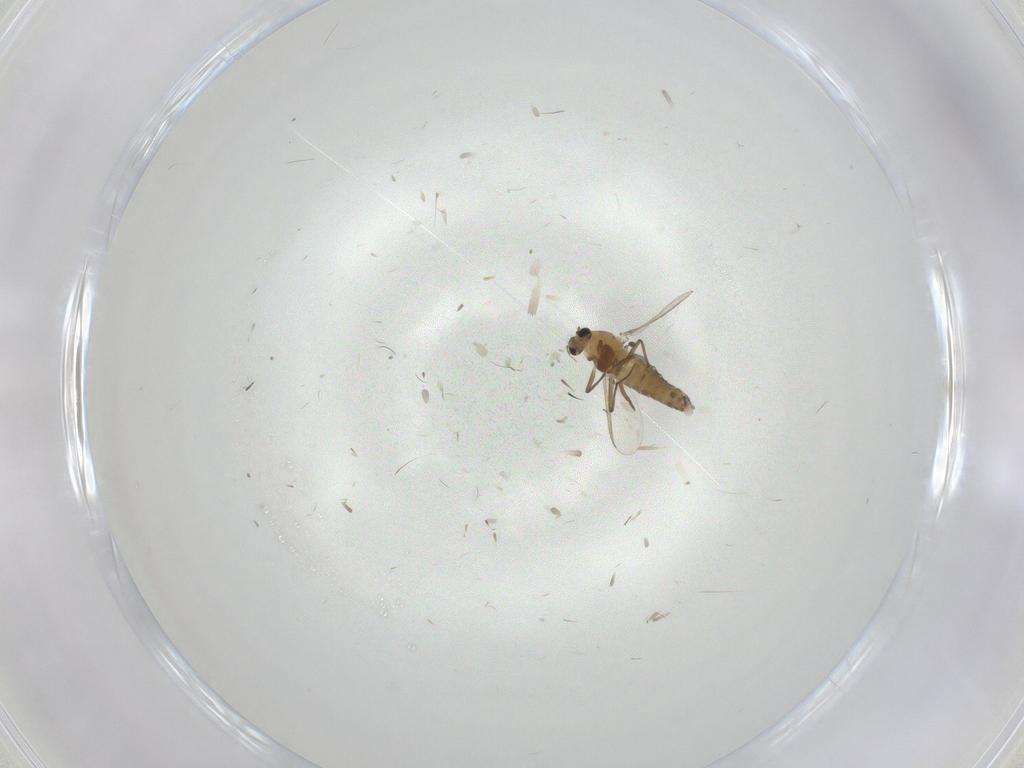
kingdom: Animalia
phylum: Arthropoda
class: Insecta
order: Diptera
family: Chironomidae
